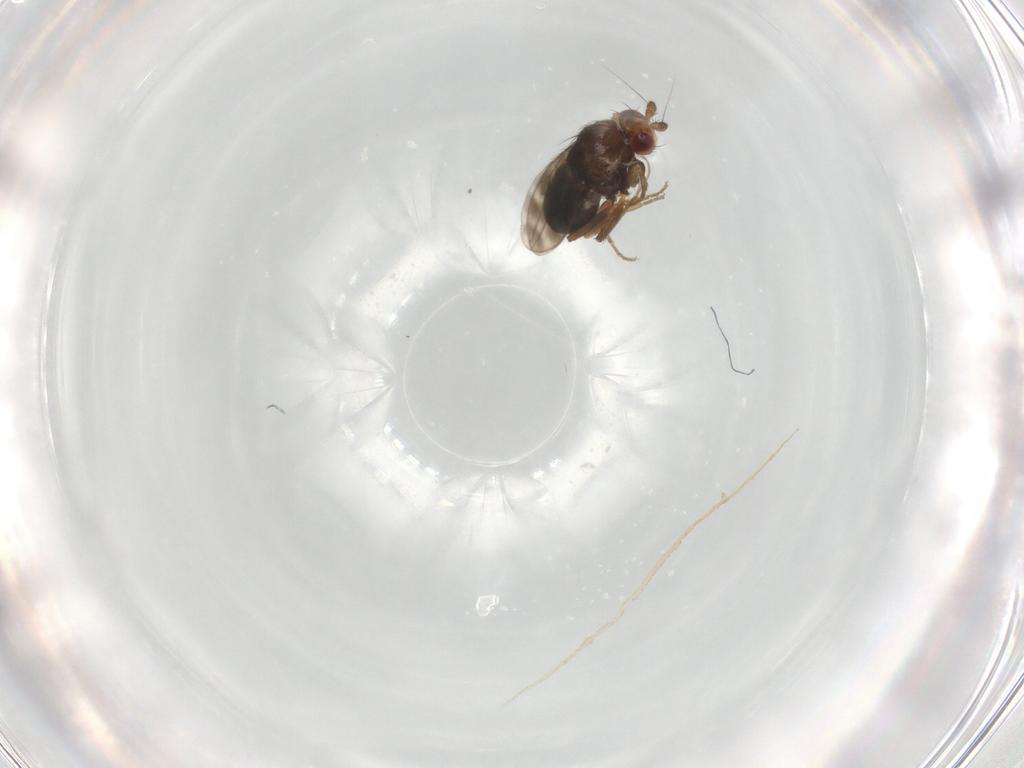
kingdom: Animalia
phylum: Arthropoda
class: Insecta
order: Diptera
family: Sphaeroceridae
